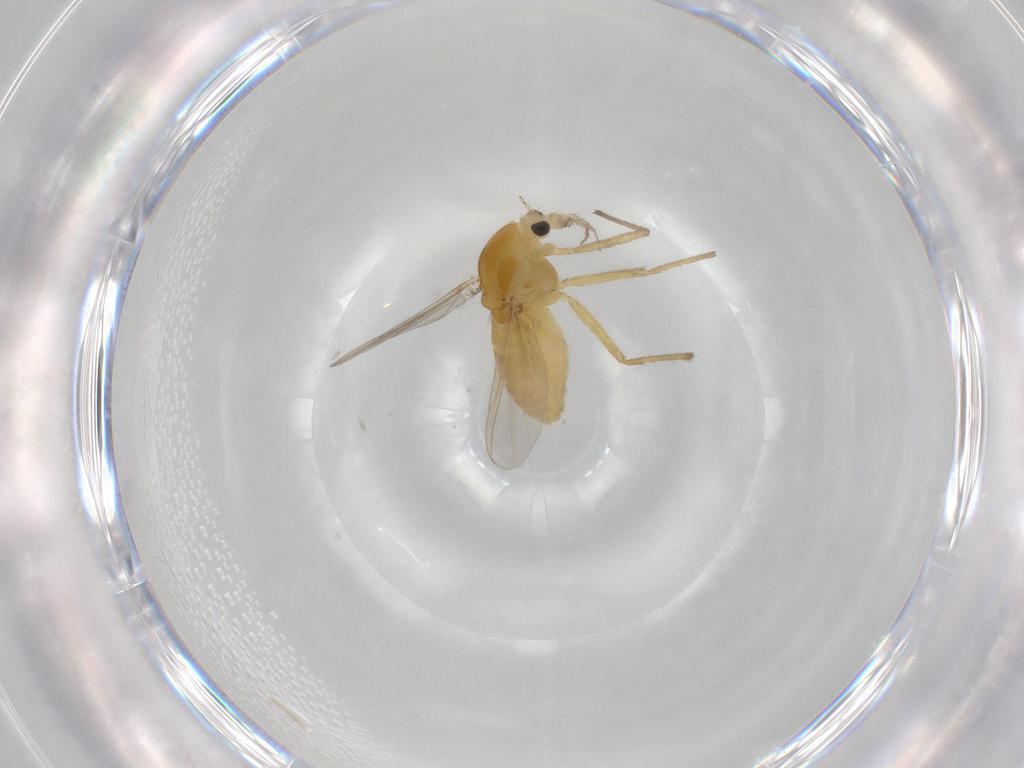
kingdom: Animalia
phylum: Arthropoda
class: Insecta
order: Diptera
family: Chironomidae
